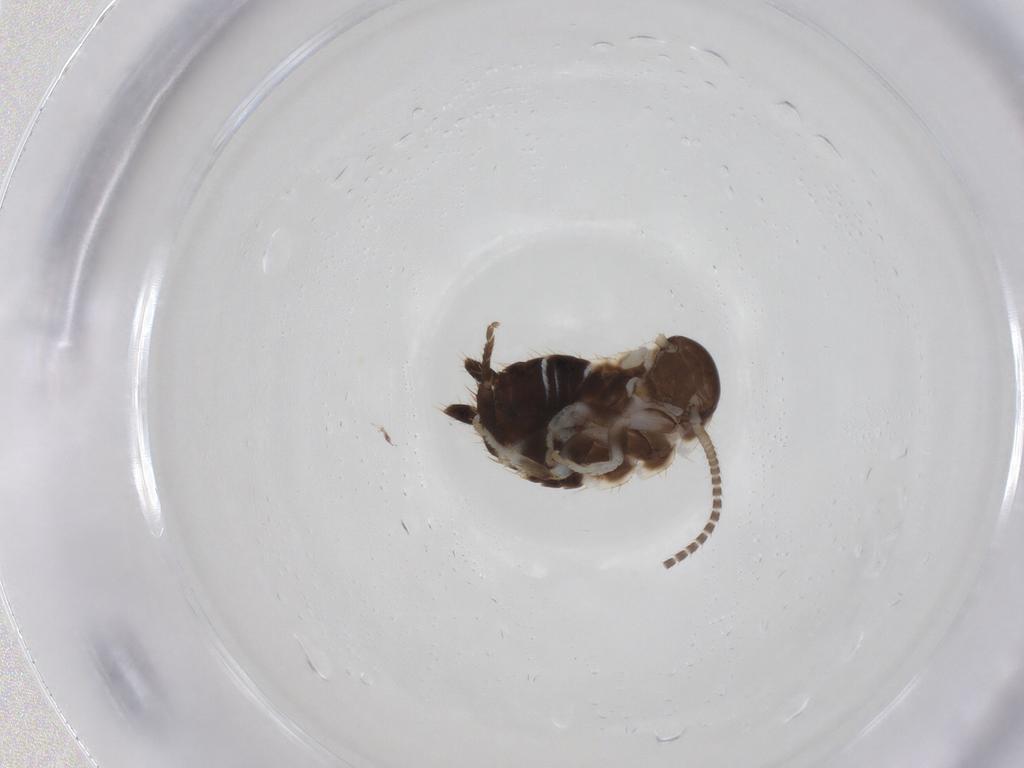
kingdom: Animalia
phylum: Arthropoda
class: Insecta
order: Blattodea
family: Ectobiidae
